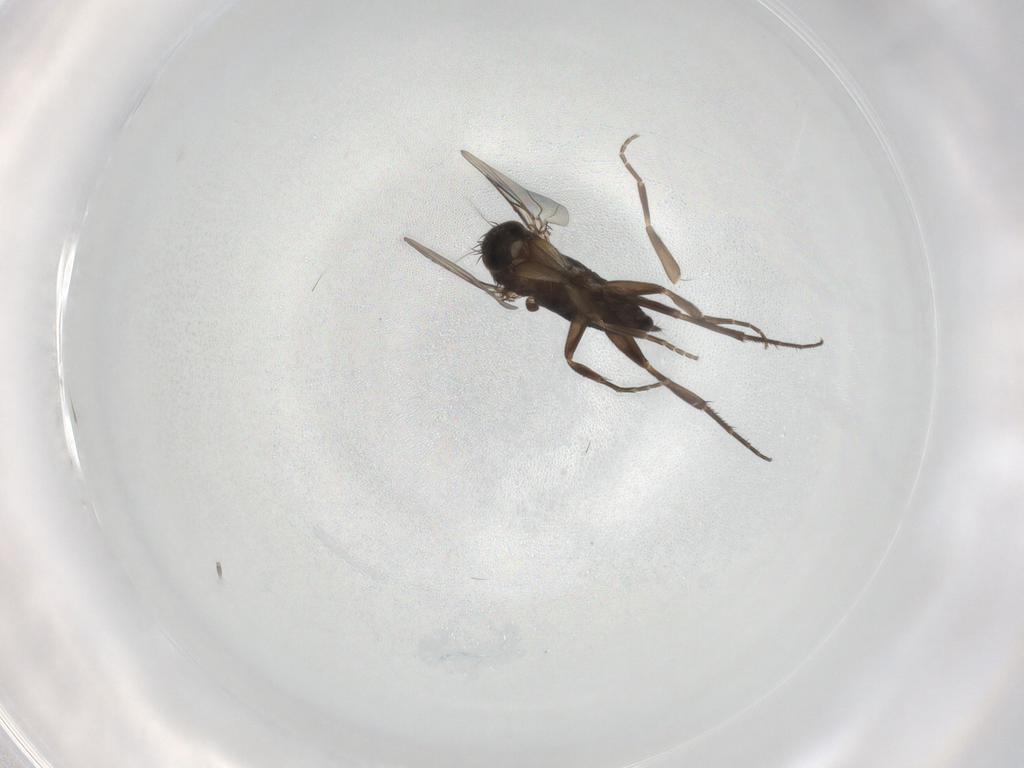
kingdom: Animalia
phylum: Arthropoda
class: Insecta
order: Diptera
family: Phoridae
